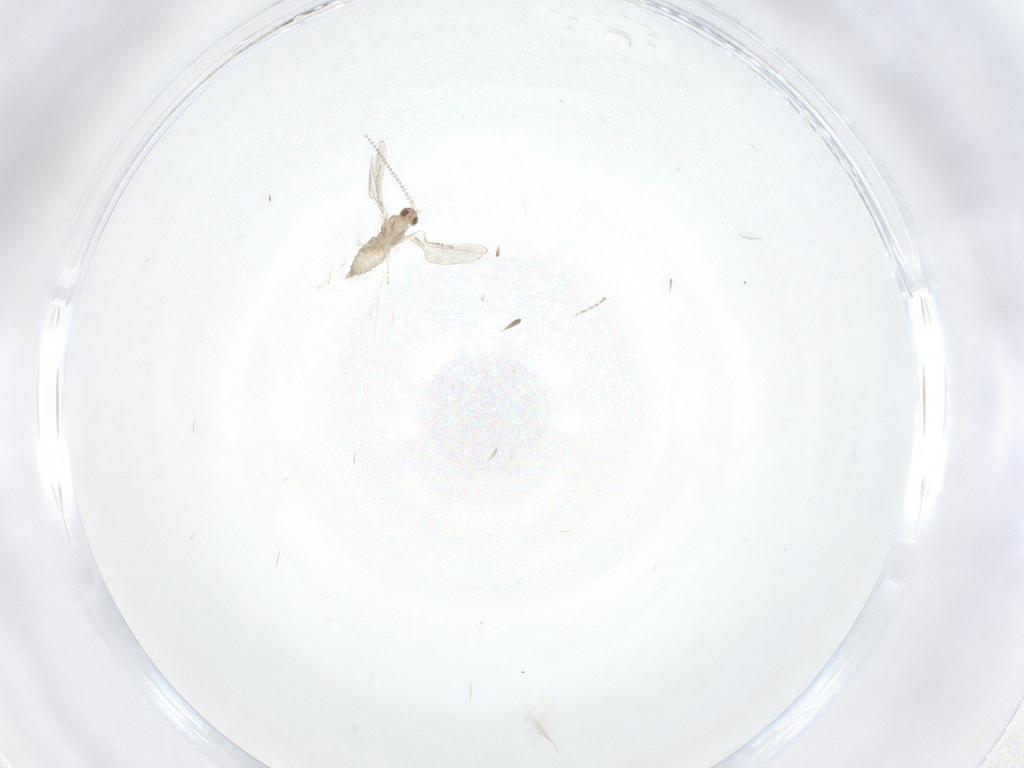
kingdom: Animalia
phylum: Arthropoda
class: Insecta
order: Diptera
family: Cecidomyiidae
